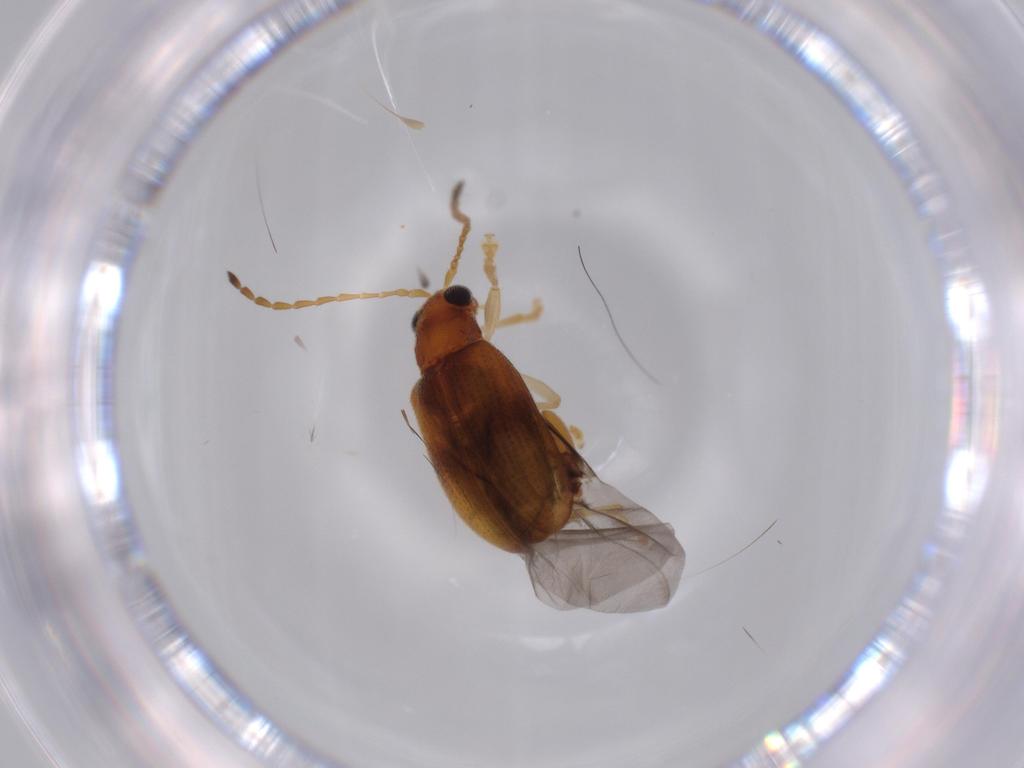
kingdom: Animalia
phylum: Arthropoda
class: Insecta
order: Coleoptera
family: Chrysomelidae
